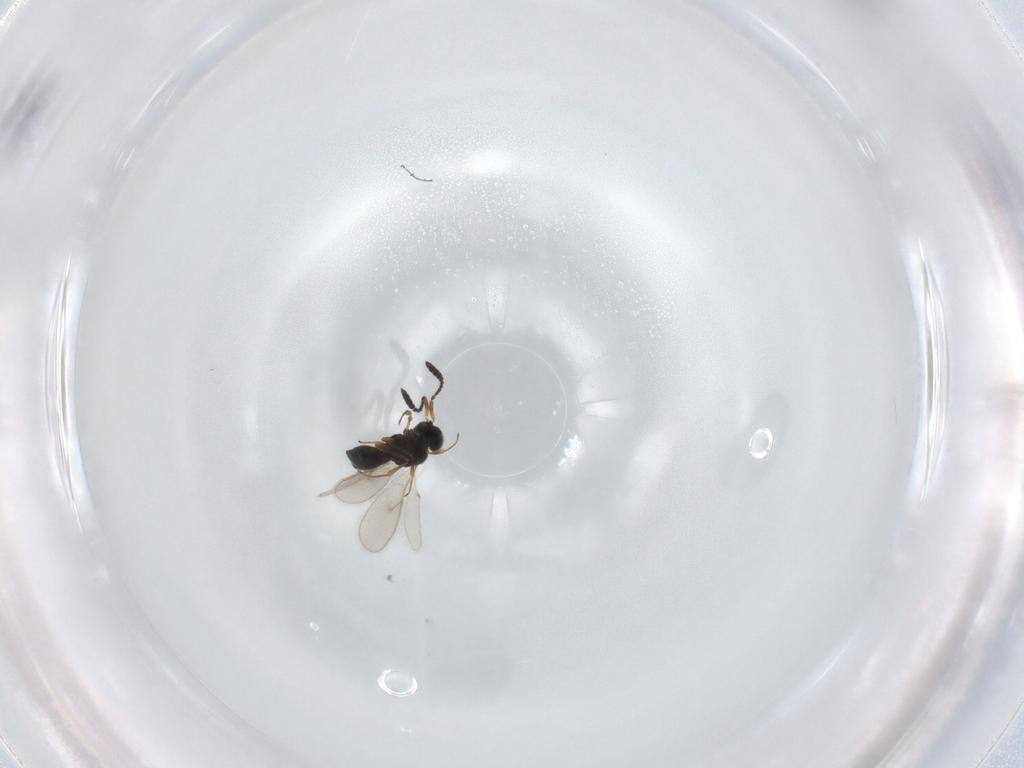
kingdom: Animalia
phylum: Arthropoda
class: Insecta
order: Hymenoptera
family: Scelionidae
